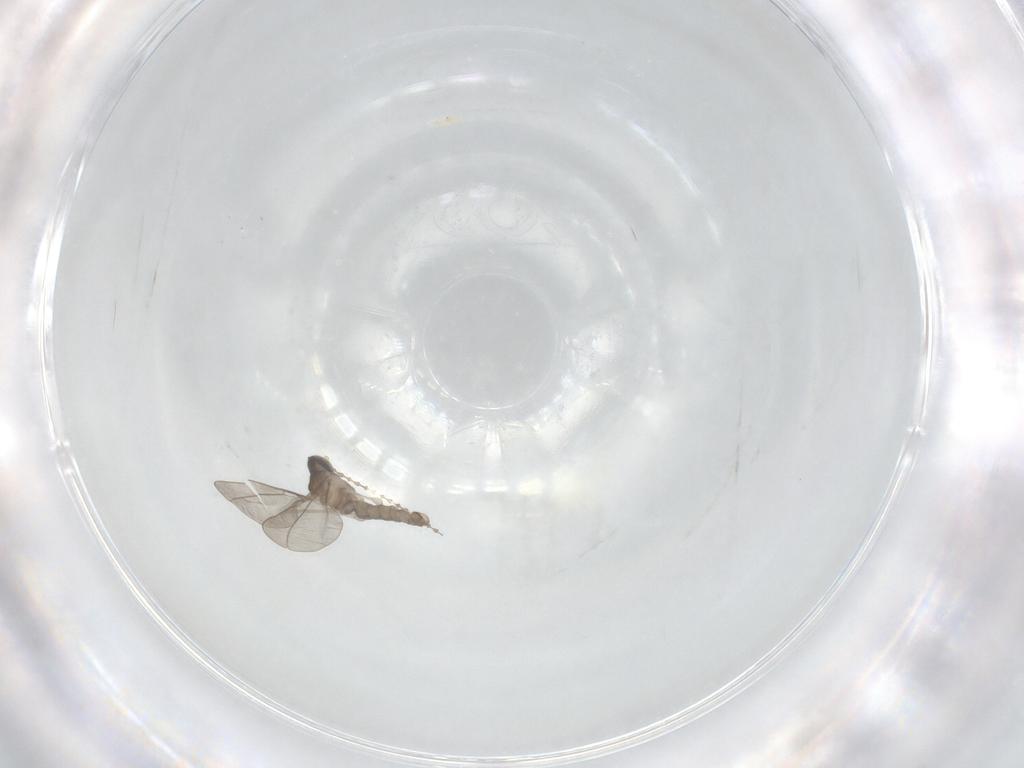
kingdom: Animalia
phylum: Arthropoda
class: Insecta
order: Diptera
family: Cecidomyiidae
